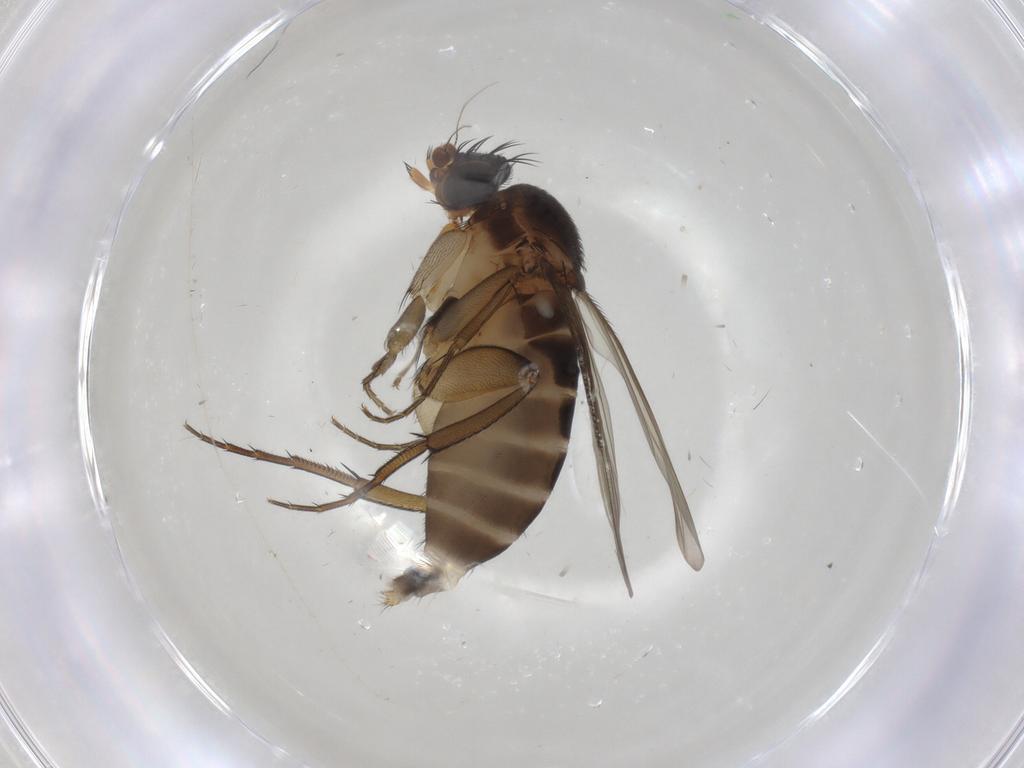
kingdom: Animalia
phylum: Arthropoda
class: Insecta
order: Diptera
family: Phoridae
